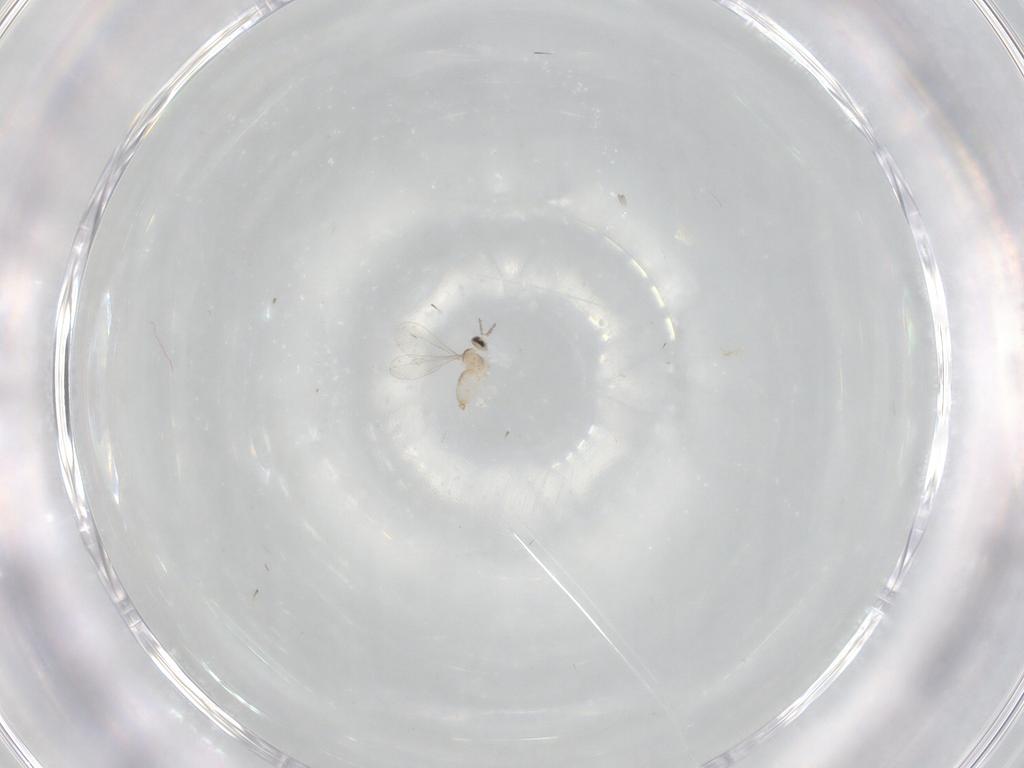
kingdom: Animalia
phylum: Arthropoda
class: Insecta
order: Diptera
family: Cecidomyiidae
